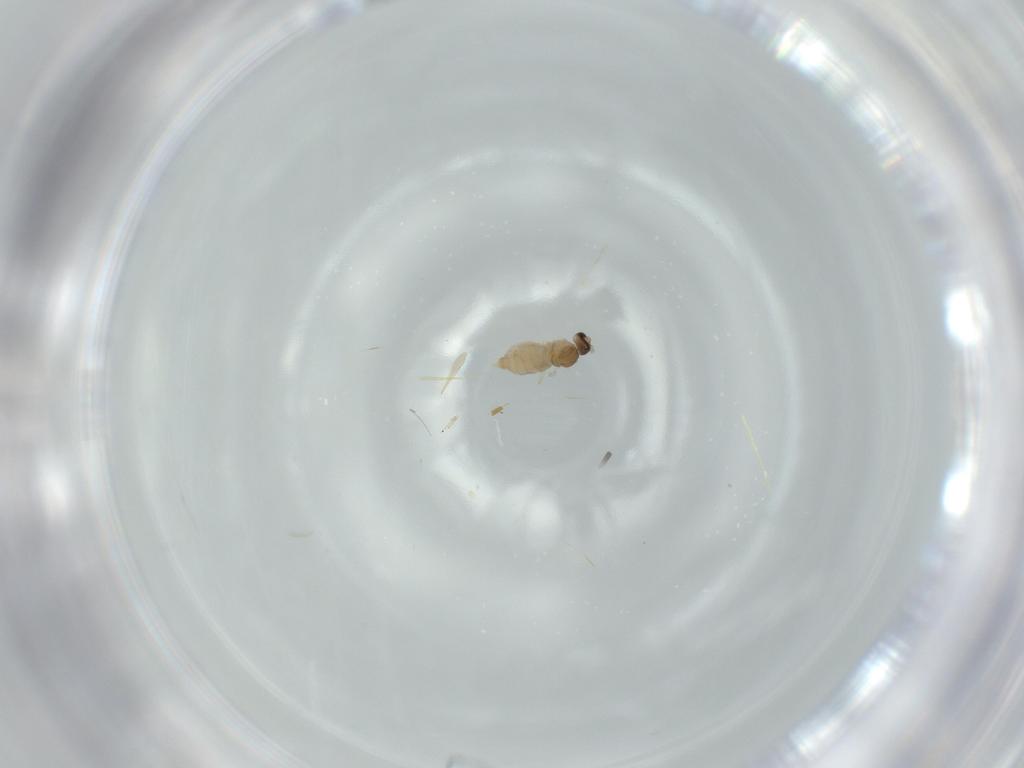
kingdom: Animalia
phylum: Arthropoda
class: Insecta
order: Diptera
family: Cecidomyiidae
